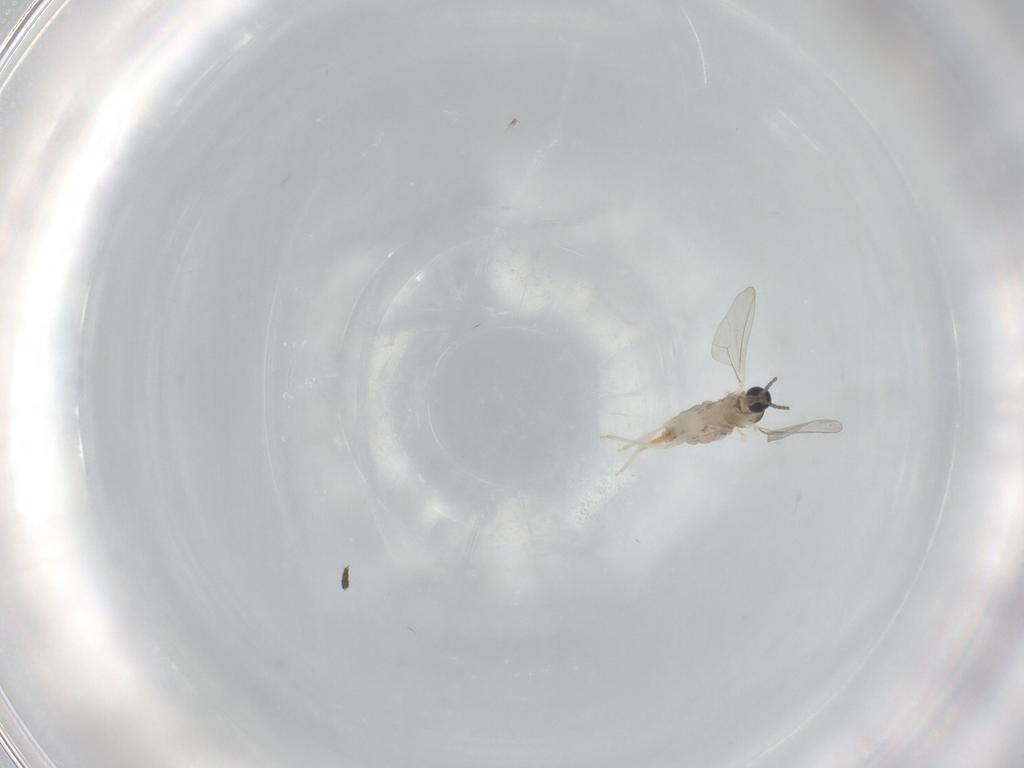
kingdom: Animalia
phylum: Arthropoda
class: Insecta
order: Diptera
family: Cecidomyiidae
